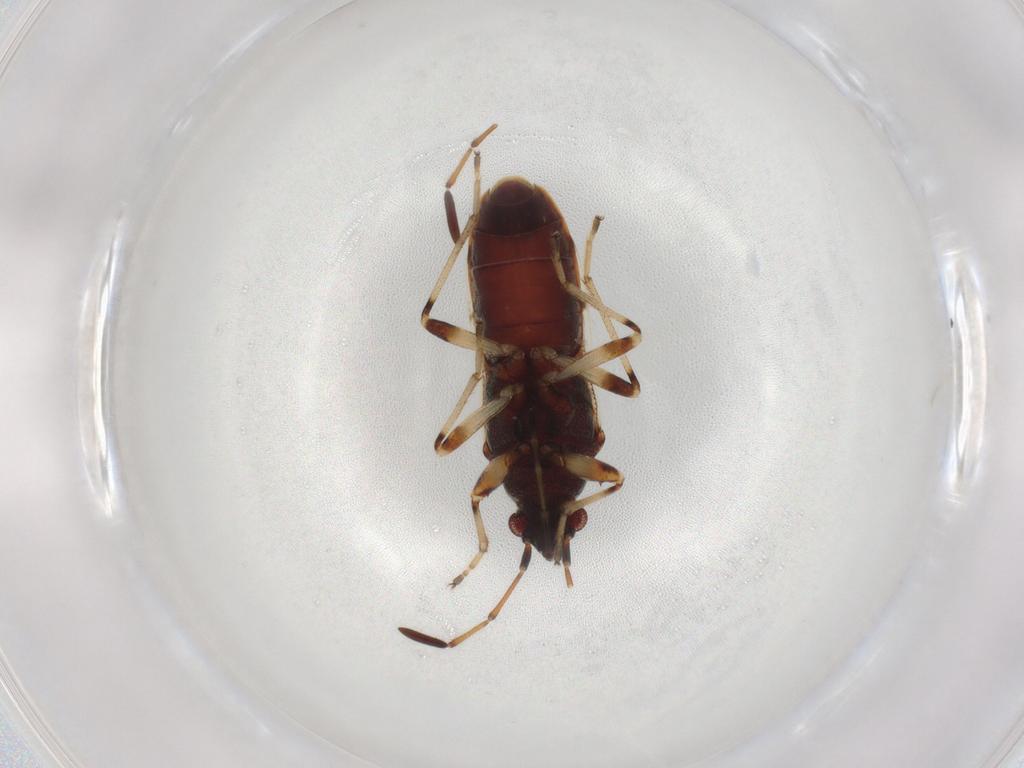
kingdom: Animalia
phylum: Arthropoda
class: Insecta
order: Hemiptera
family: Rhyparochromidae
